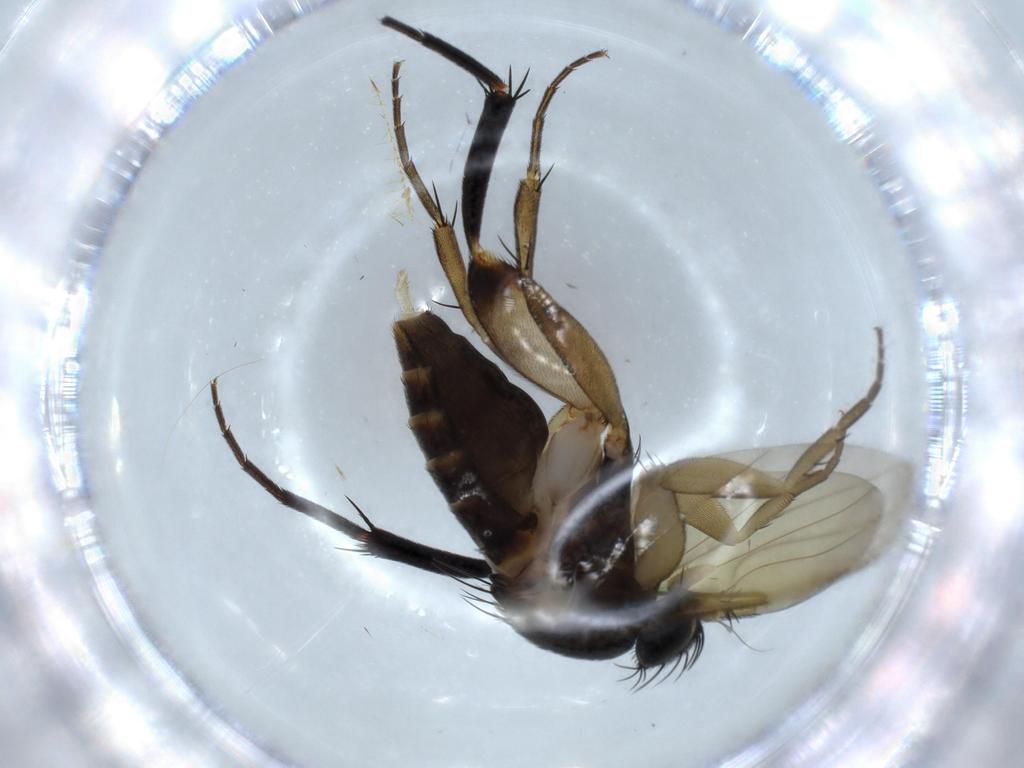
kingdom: Animalia
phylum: Arthropoda
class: Insecta
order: Diptera
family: Phoridae
